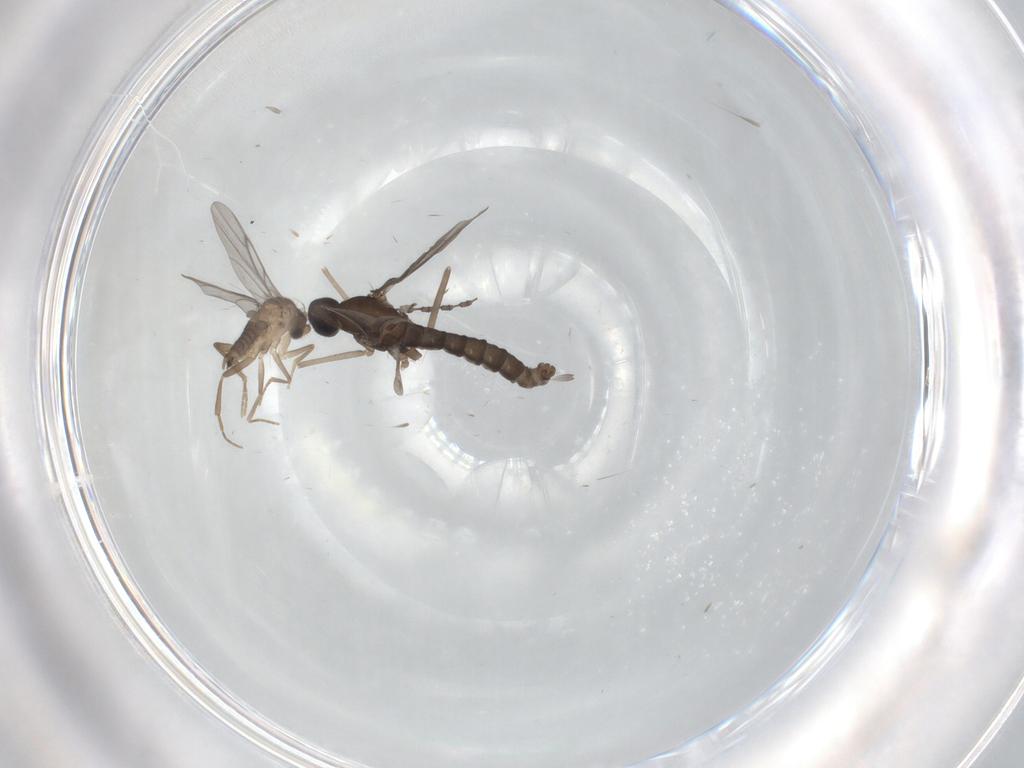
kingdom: Animalia
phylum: Arthropoda
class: Insecta
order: Diptera
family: Cecidomyiidae
